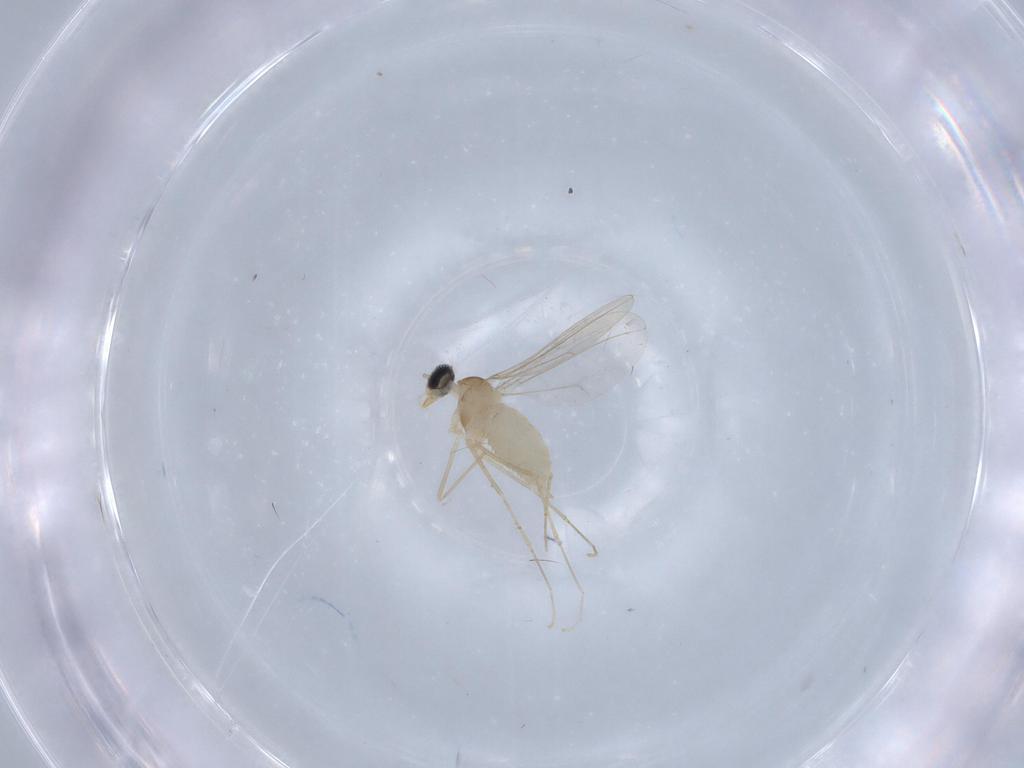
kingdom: Animalia
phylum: Arthropoda
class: Insecta
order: Diptera
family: Cecidomyiidae
